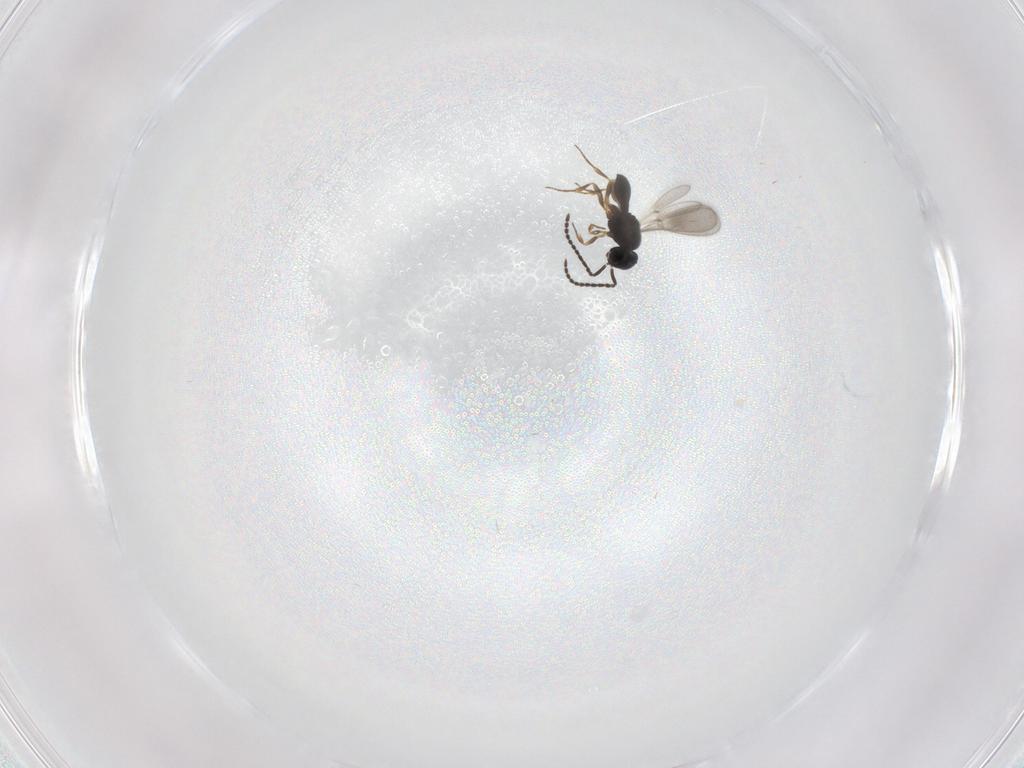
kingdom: Animalia
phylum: Arthropoda
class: Insecta
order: Hymenoptera
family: Scelionidae
